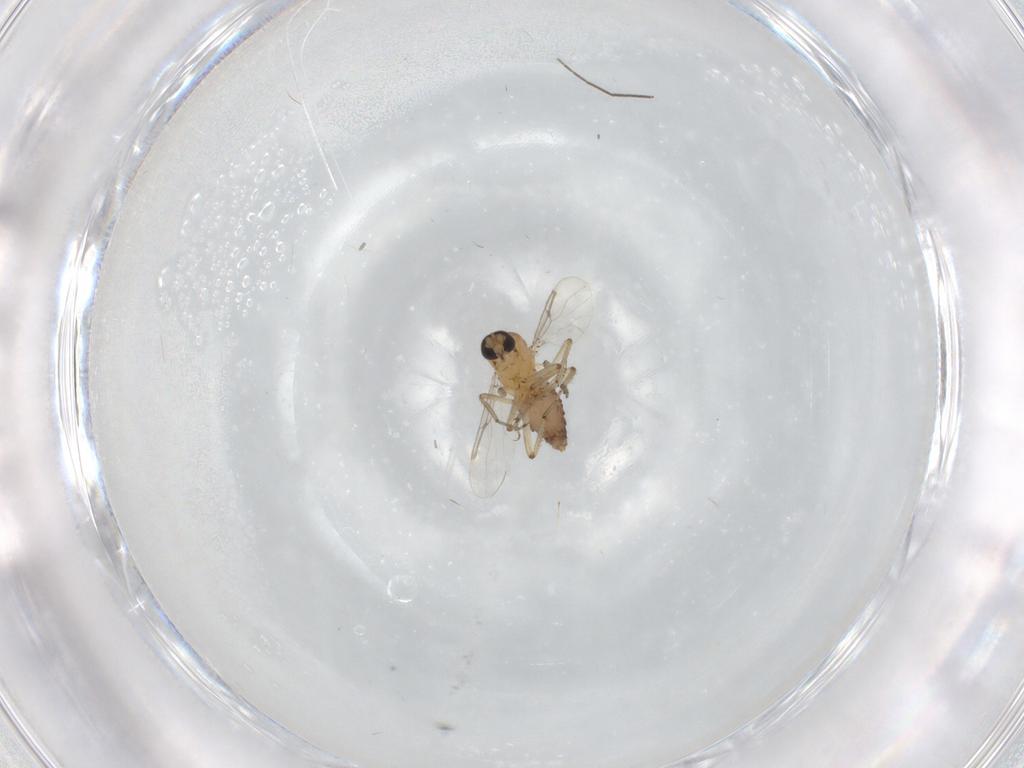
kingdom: Animalia
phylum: Arthropoda
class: Insecta
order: Diptera
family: Ceratopogonidae
